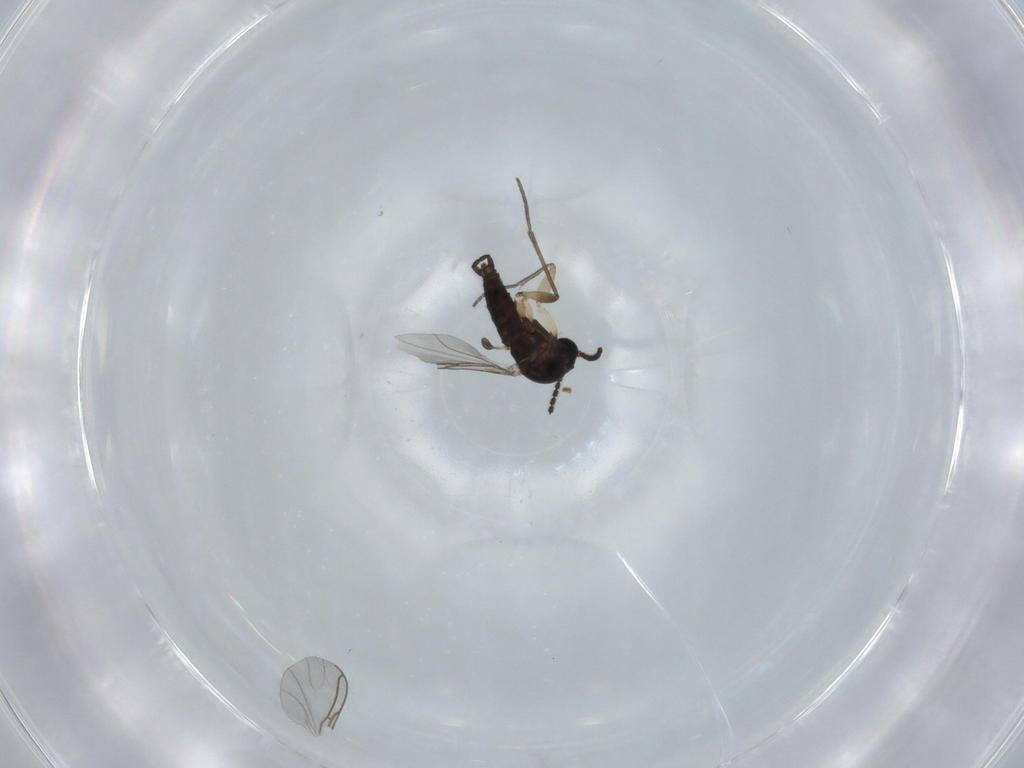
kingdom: Animalia
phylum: Arthropoda
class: Insecta
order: Diptera
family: Sciaridae
